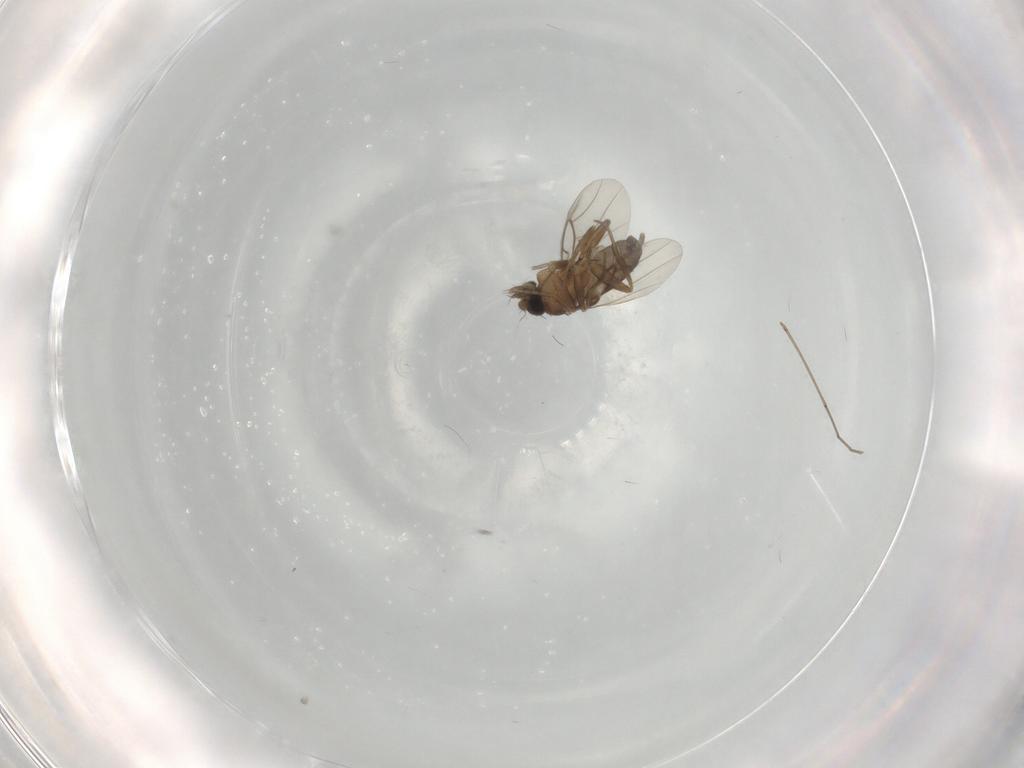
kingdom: Animalia
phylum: Arthropoda
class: Insecta
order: Diptera
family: Phoridae
